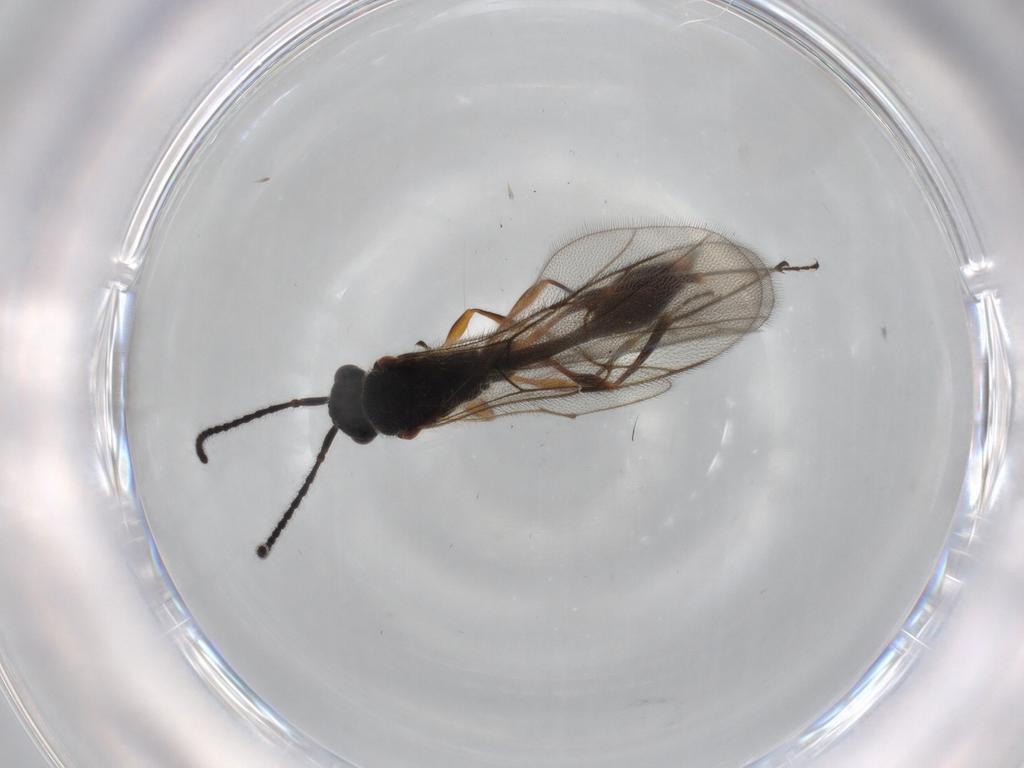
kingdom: Animalia
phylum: Arthropoda
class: Insecta
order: Hymenoptera
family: Diapriidae
